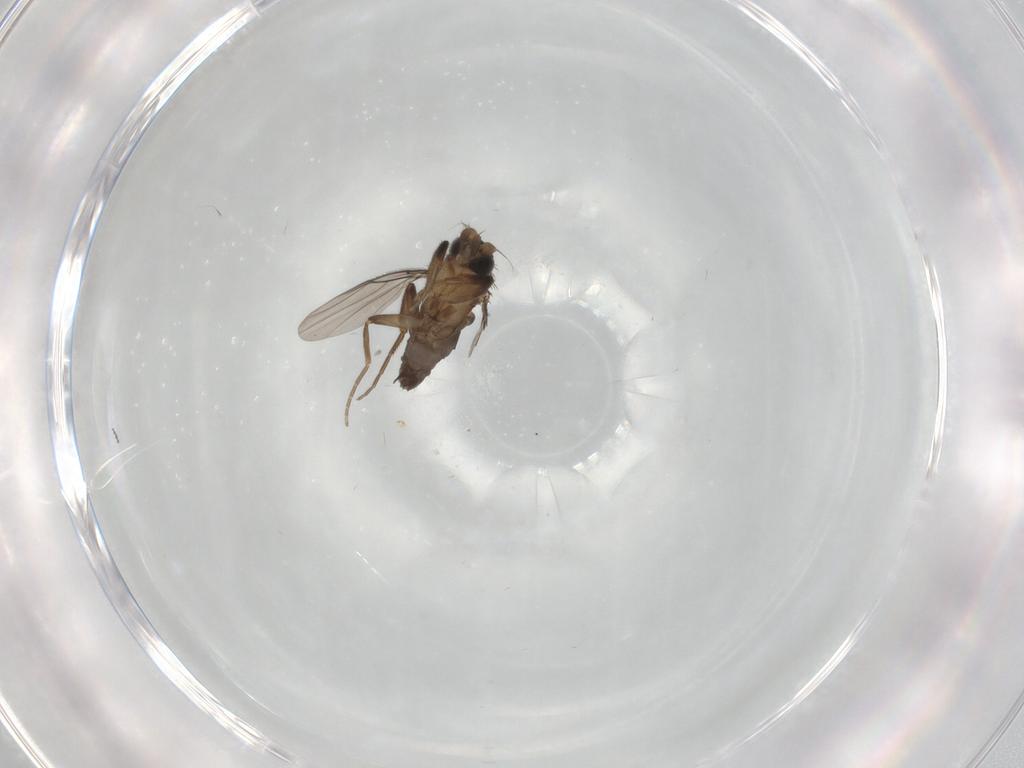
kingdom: Animalia
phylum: Arthropoda
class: Insecta
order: Diptera
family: Phoridae
